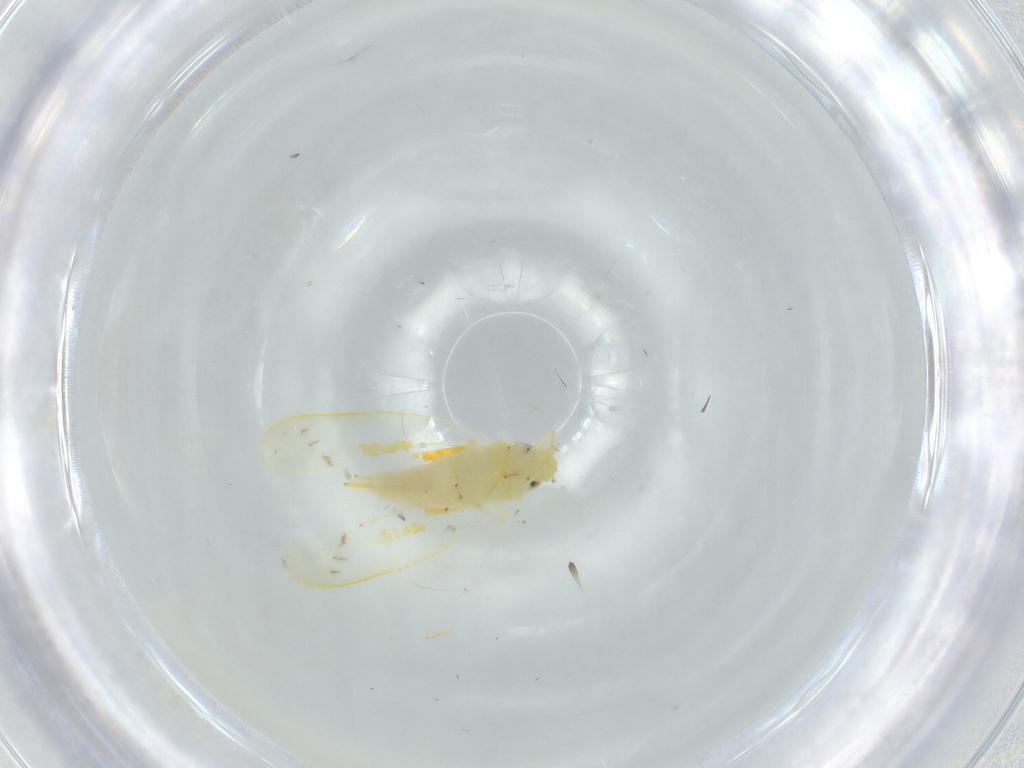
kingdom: Animalia
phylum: Arthropoda
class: Insecta
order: Hemiptera
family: Cicadellidae
